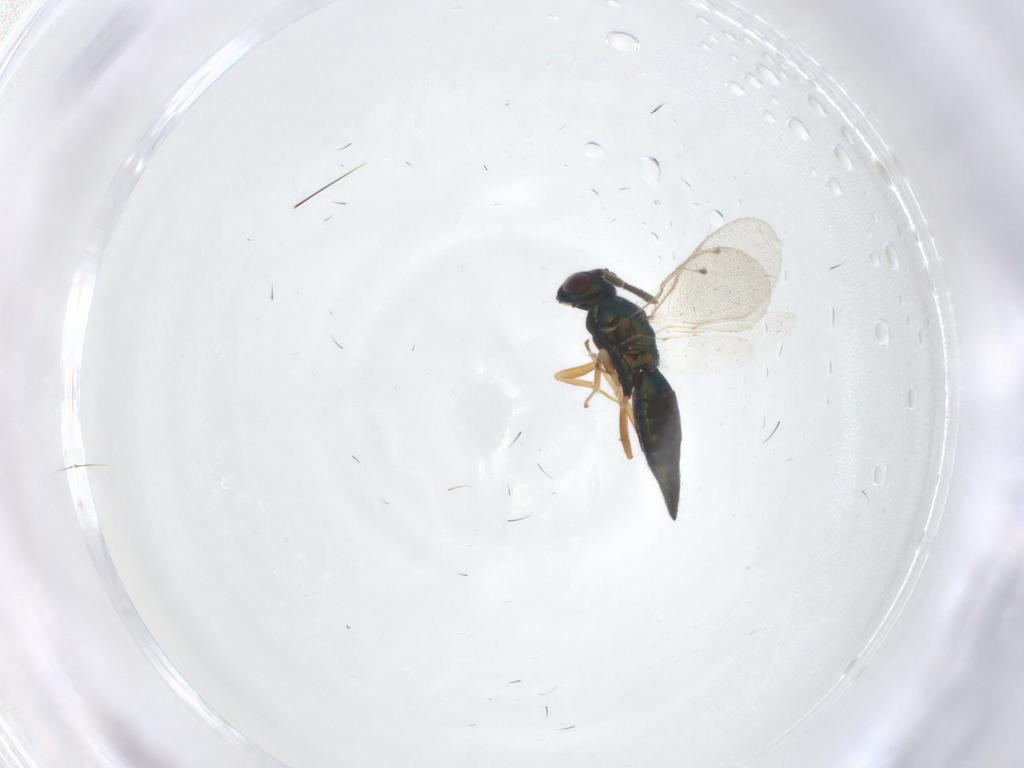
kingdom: Animalia
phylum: Arthropoda
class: Insecta
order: Hymenoptera
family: Pteromalidae
